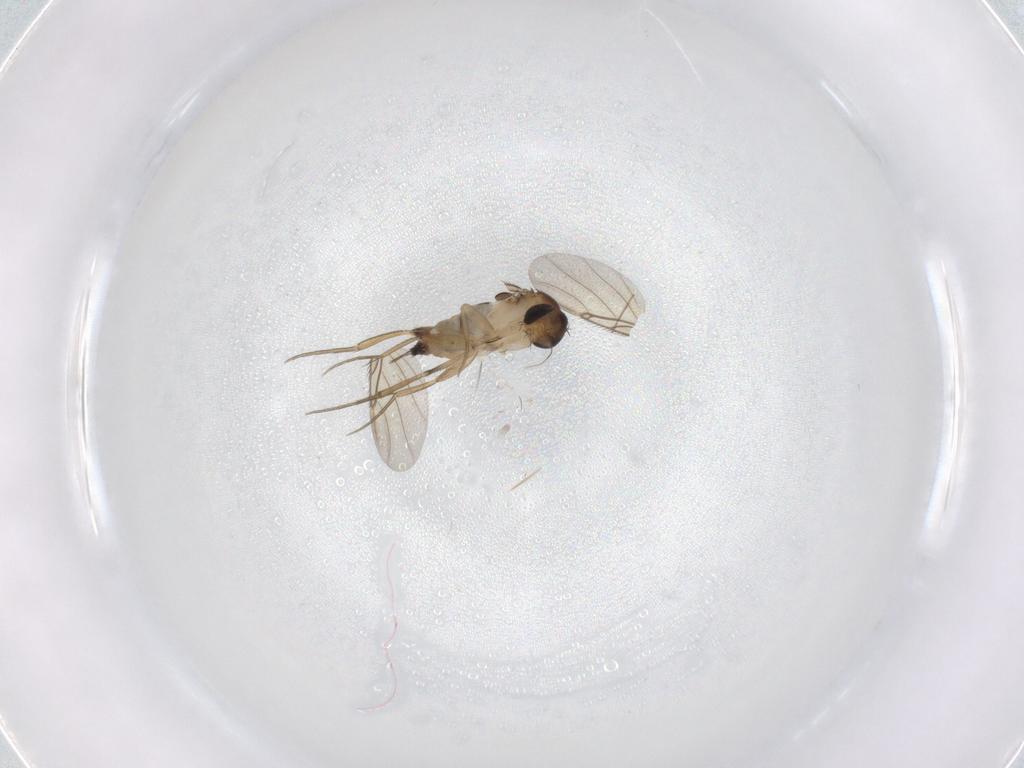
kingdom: Animalia
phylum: Arthropoda
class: Insecta
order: Diptera
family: Phoridae
